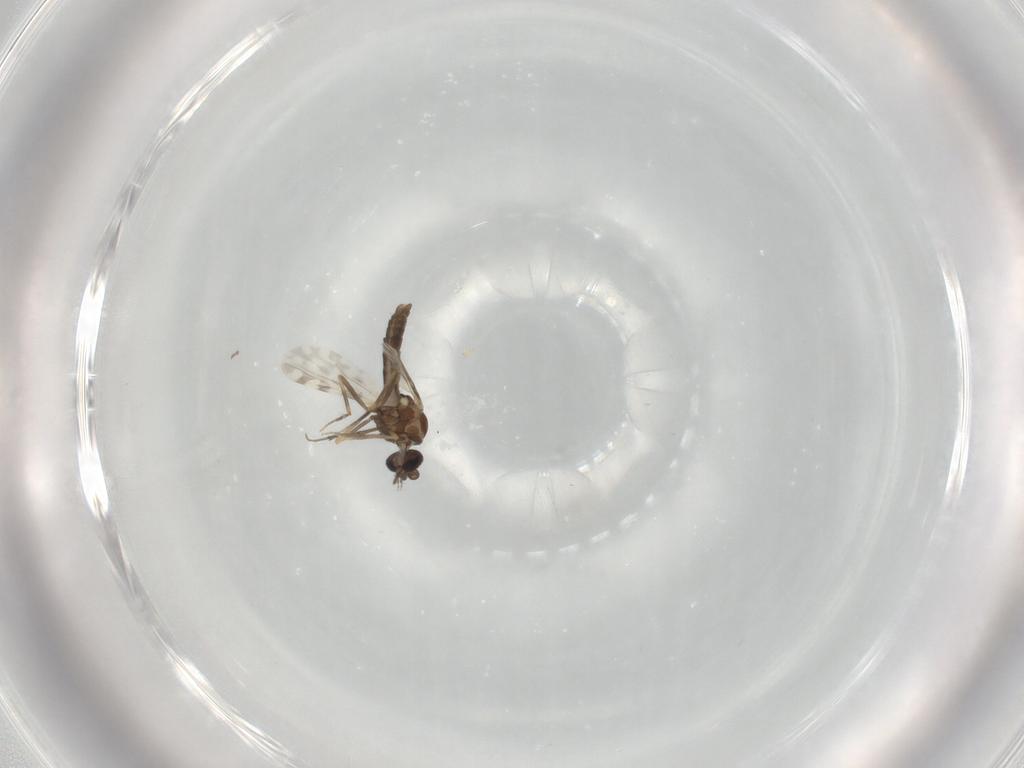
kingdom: Animalia
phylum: Arthropoda
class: Insecta
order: Diptera
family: Ceratopogonidae
